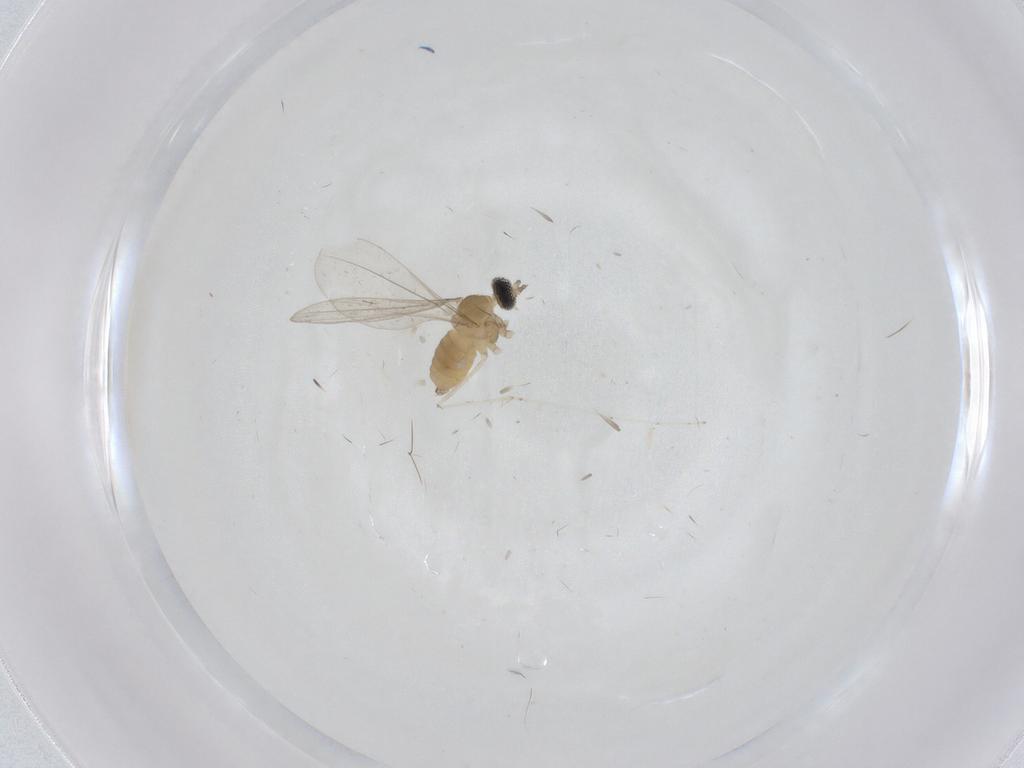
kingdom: Animalia
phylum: Arthropoda
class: Insecta
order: Diptera
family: Cecidomyiidae
